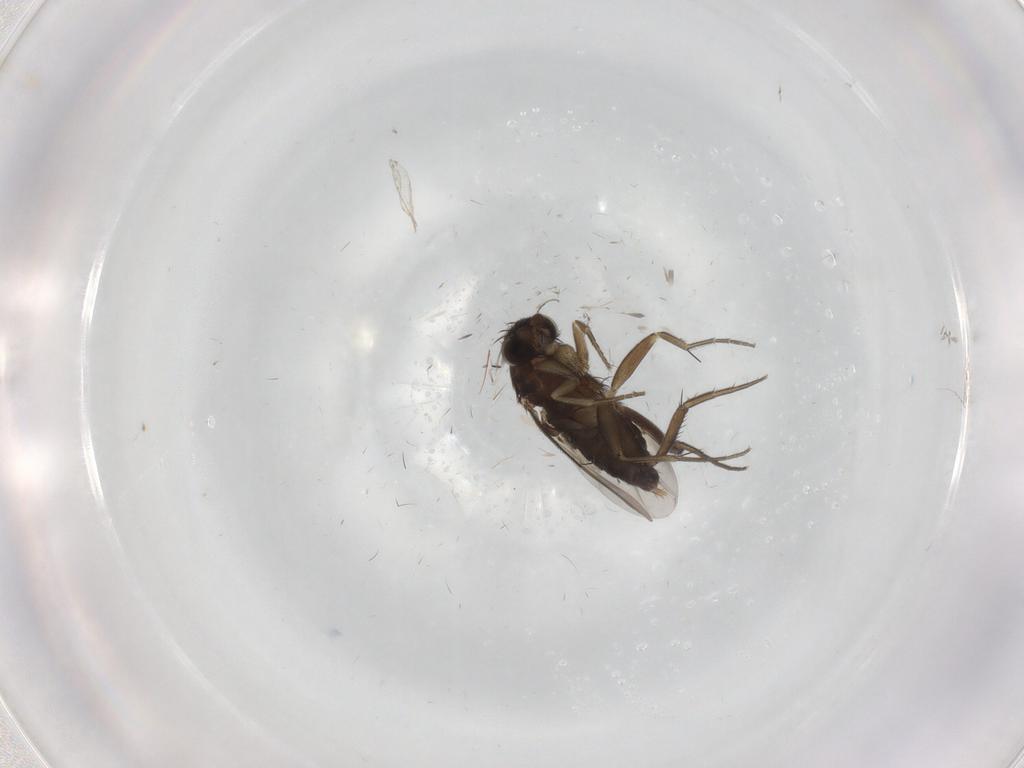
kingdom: Animalia
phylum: Arthropoda
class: Insecta
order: Diptera
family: Phoridae
